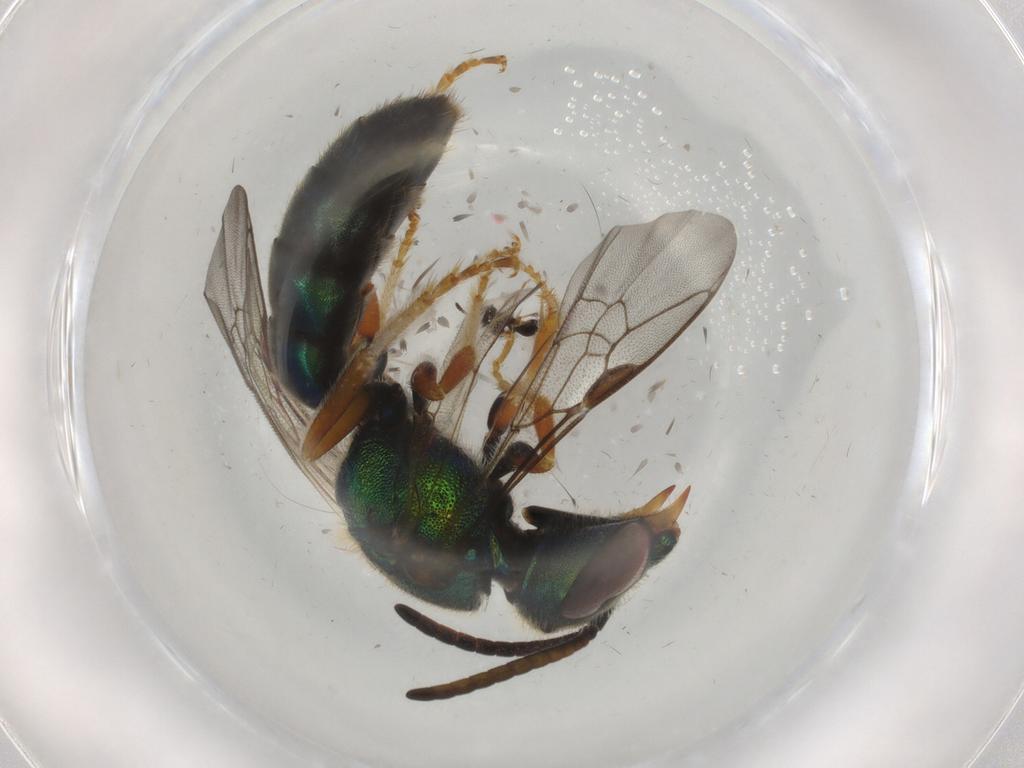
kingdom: Animalia
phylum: Arthropoda
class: Insecta
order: Hymenoptera
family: Halictidae
